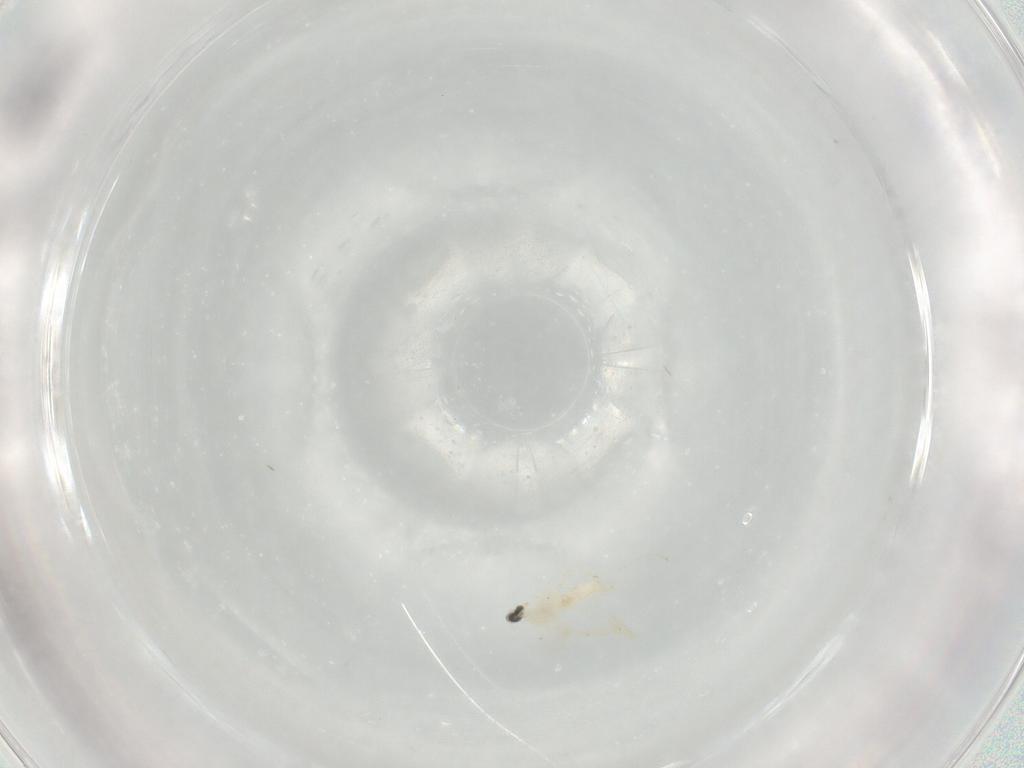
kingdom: Animalia
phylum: Arthropoda
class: Insecta
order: Diptera
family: Cecidomyiidae
